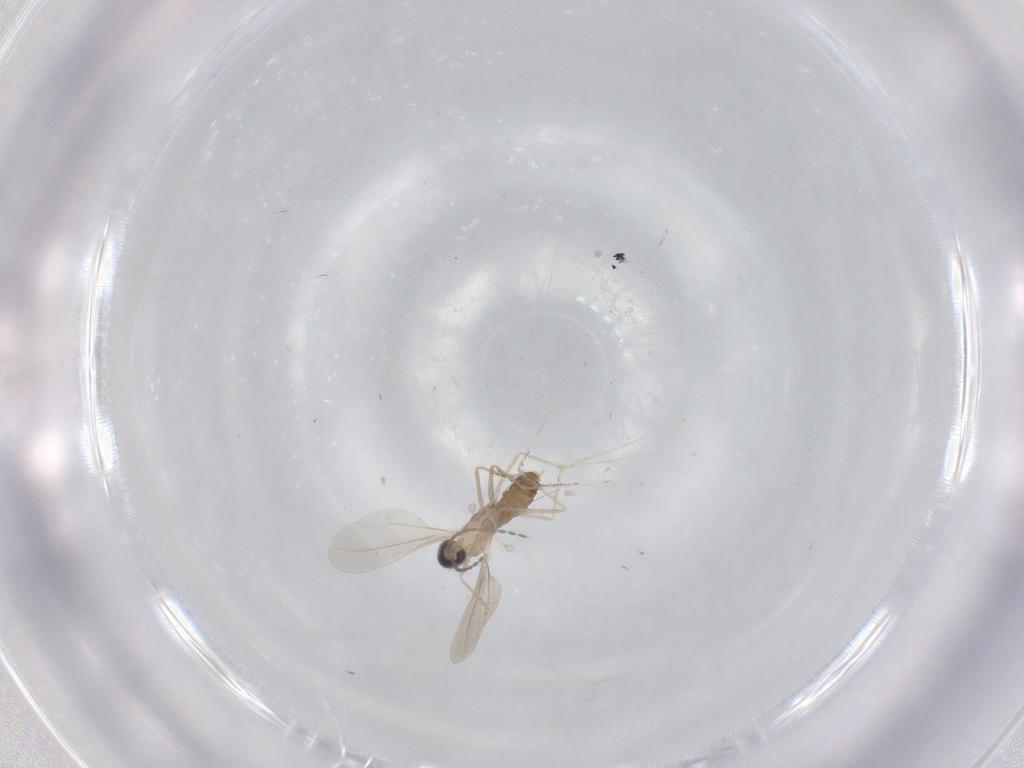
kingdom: Animalia
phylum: Arthropoda
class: Insecta
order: Diptera
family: Cecidomyiidae
